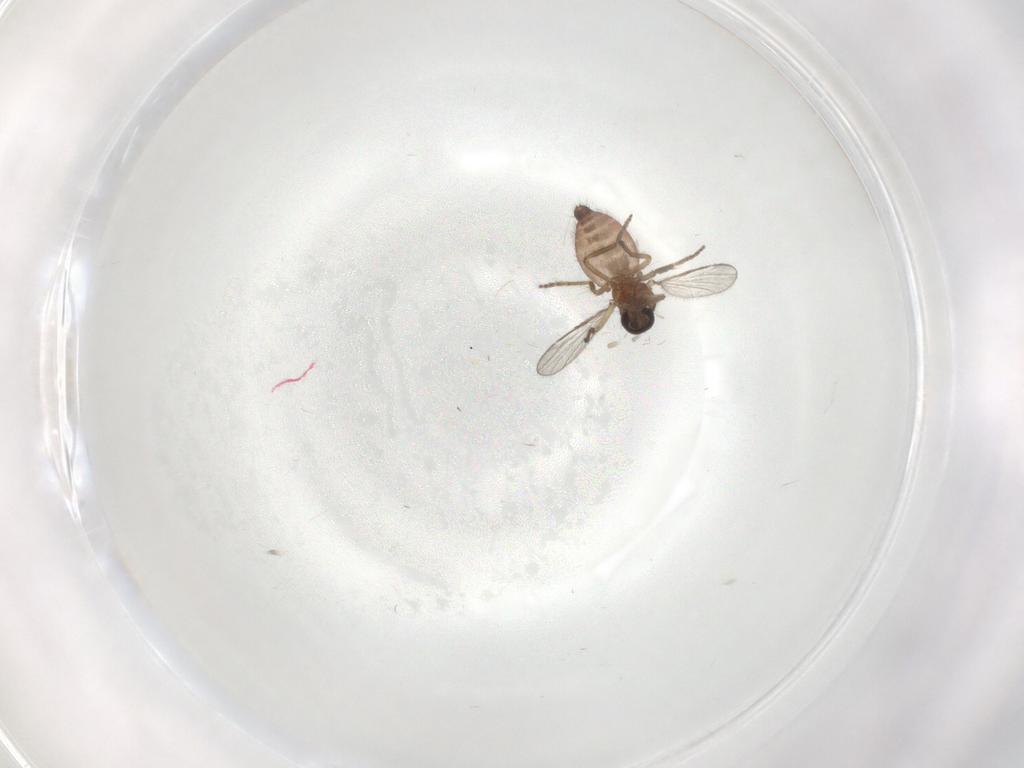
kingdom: Animalia
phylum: Arthropoda
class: Insecta
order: Diptera
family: Ceratopogonidae
